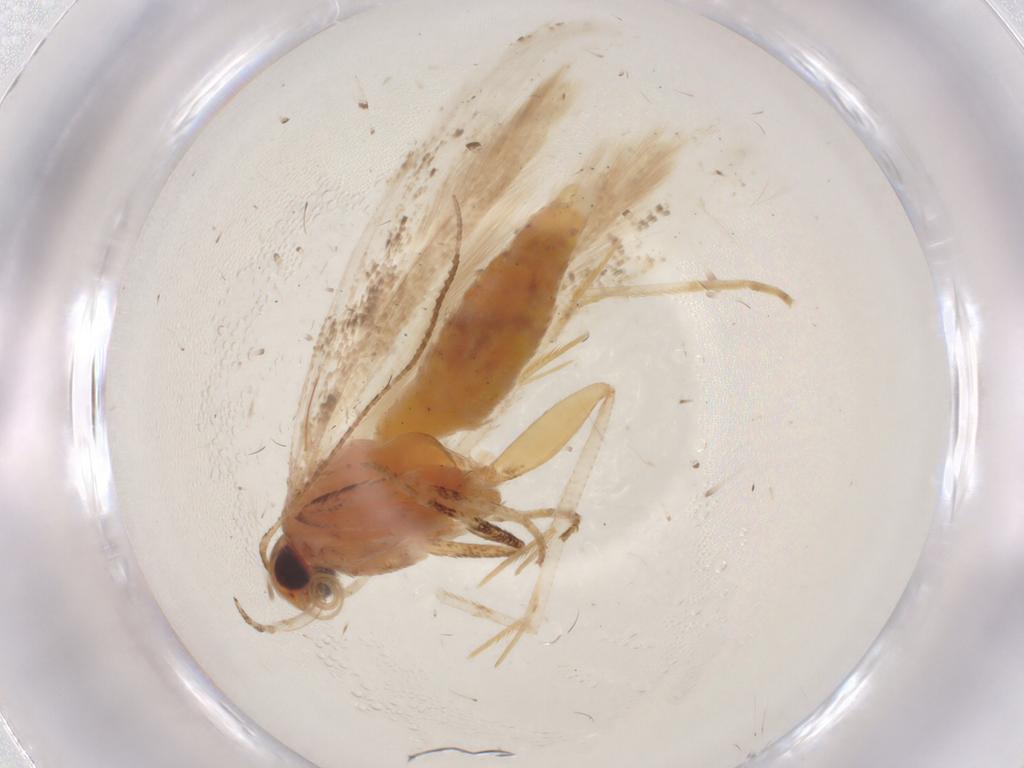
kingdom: Animalia
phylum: Arthropoda
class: Insecta
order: Lepidoptera
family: Gelechiidae
